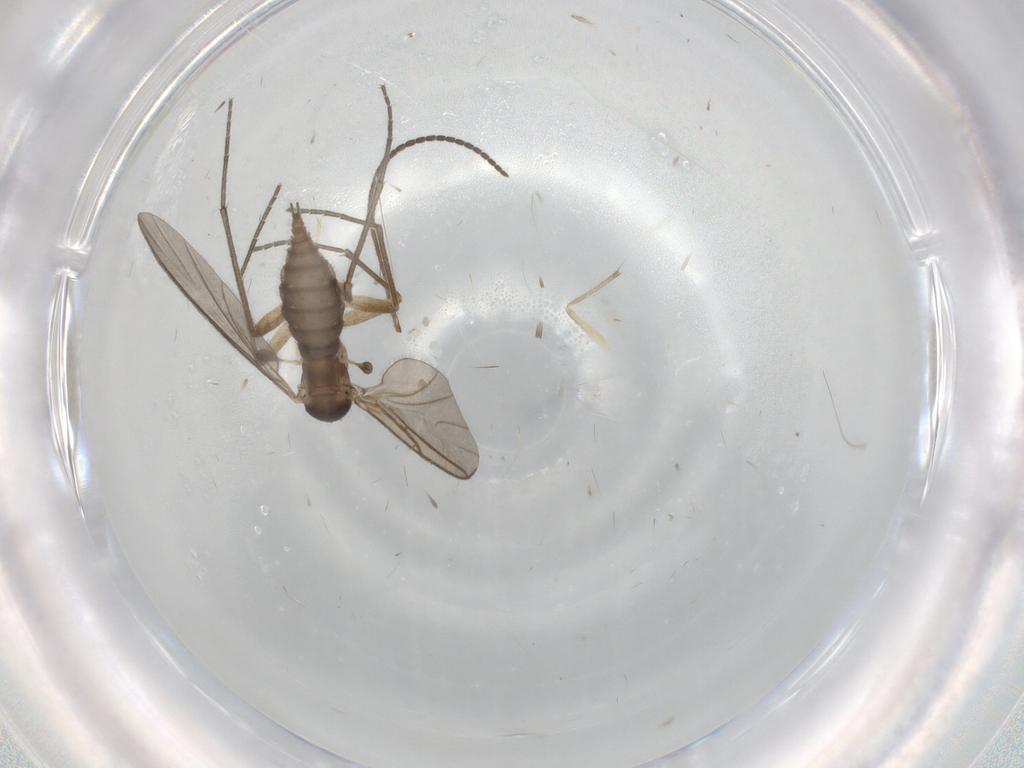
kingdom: Animalia
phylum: Arthropoda
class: Insecta
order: Diptera
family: Sciaridae
